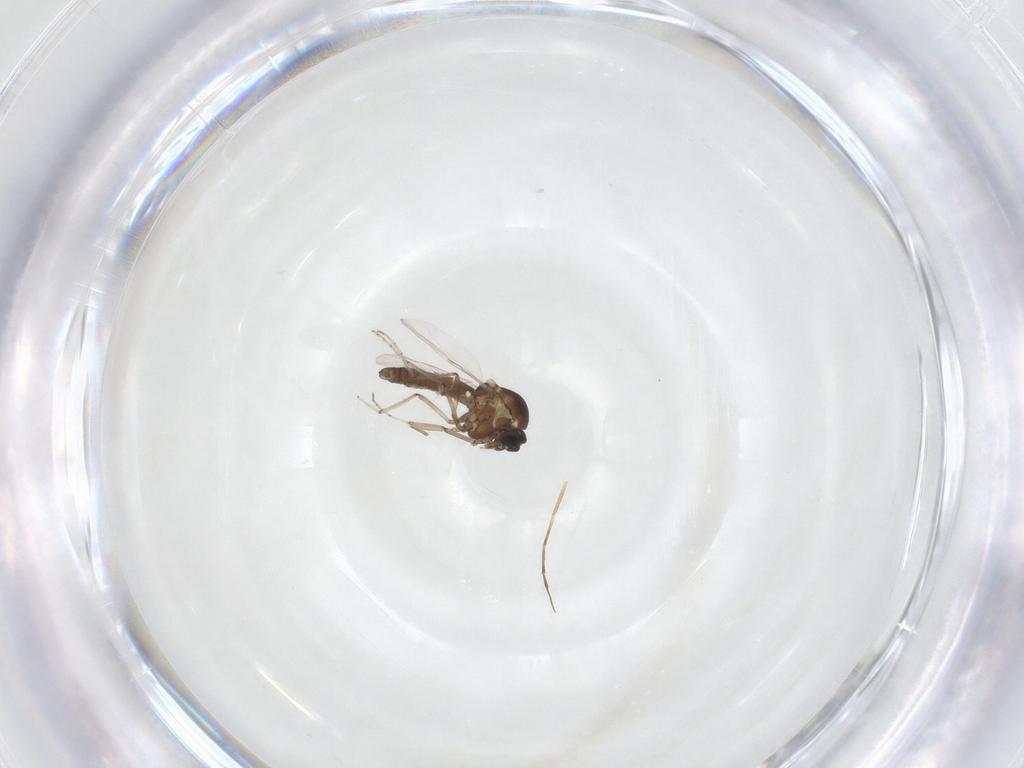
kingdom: Animalia
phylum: Arthropoda
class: Insecta
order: Diptera
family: Ceratopogonidae
